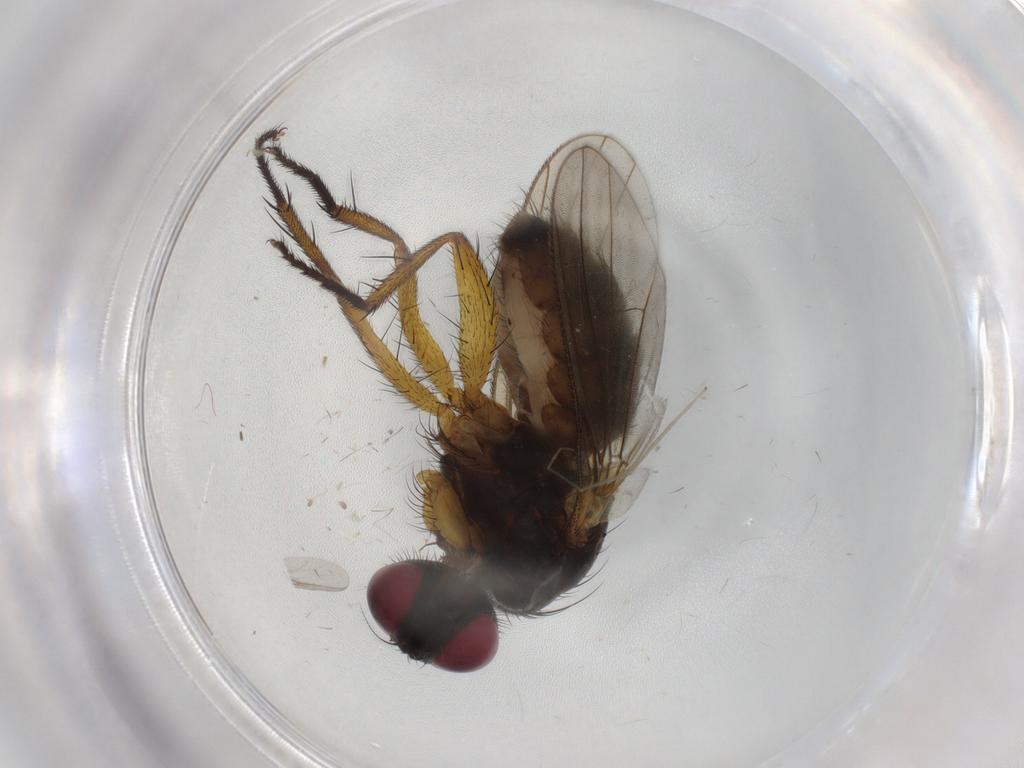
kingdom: Animalia
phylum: Arthropoda
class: Insecta
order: Diptera
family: Muscidae
